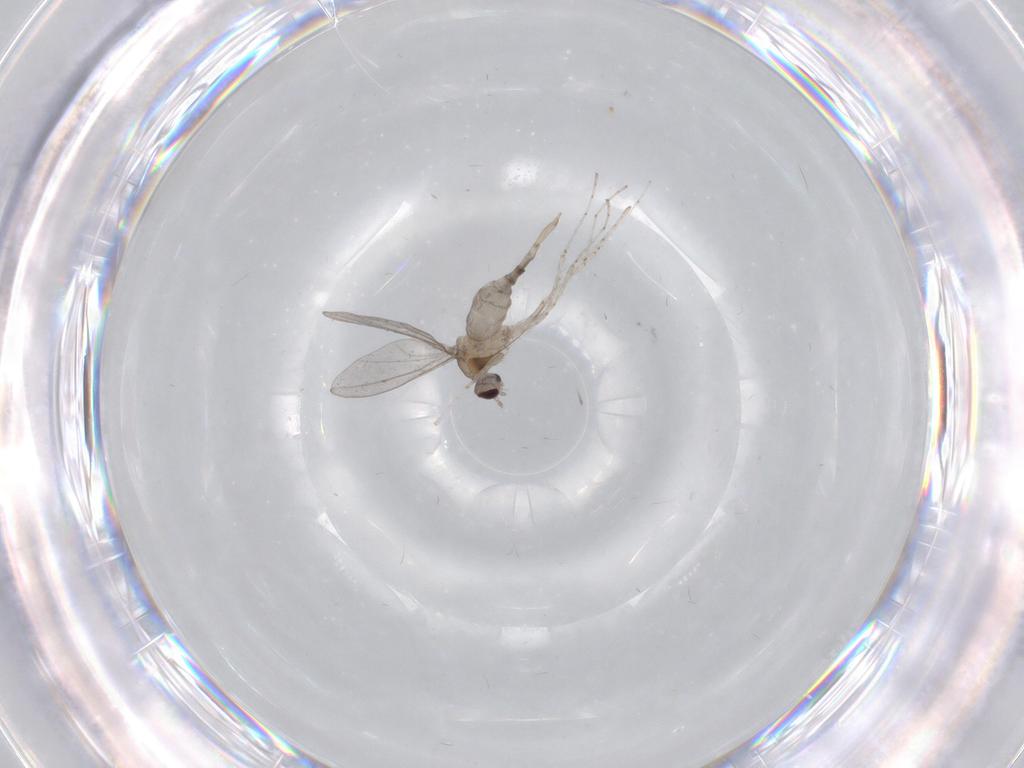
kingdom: Animalia
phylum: Arthropoda
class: Insecta
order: Diptera
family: Cecidomyiidae
